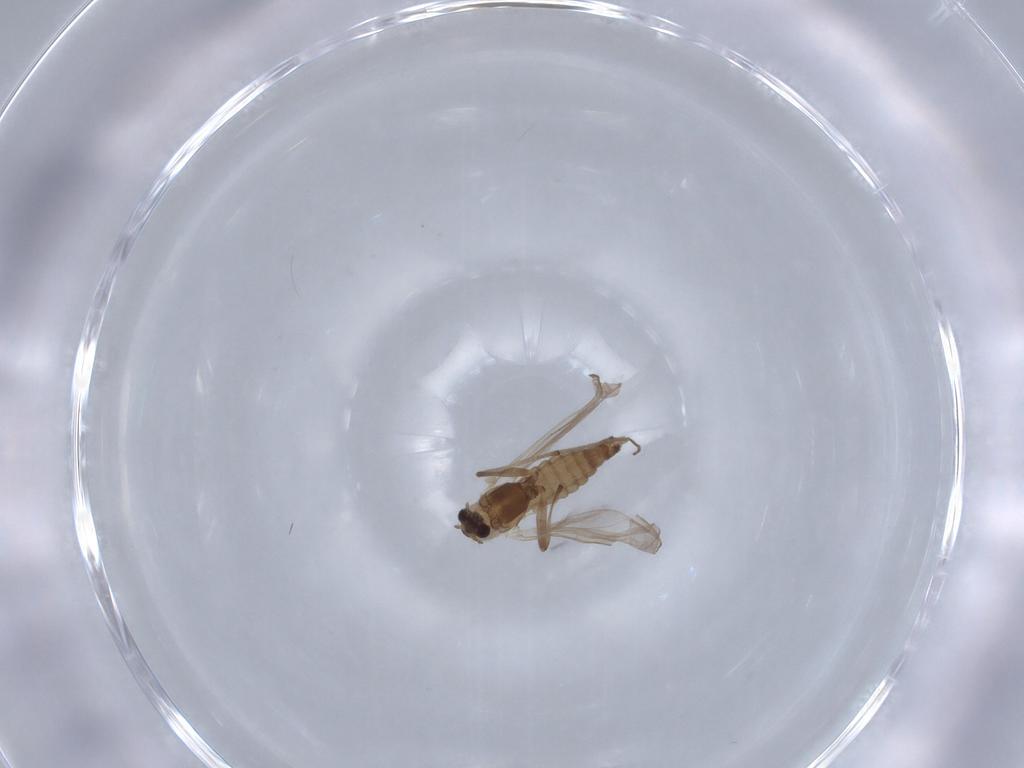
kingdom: Animalia
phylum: Arthropoda
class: Insecta
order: Diptera
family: Chironomidae
